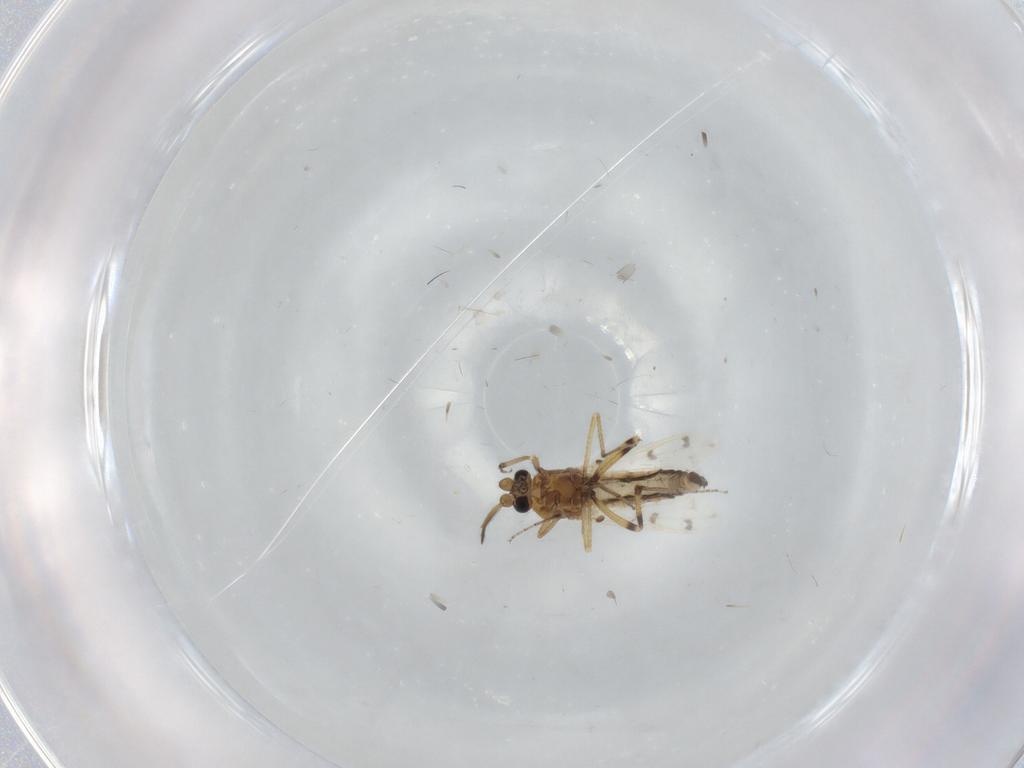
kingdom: Animalia
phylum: Arthropoda
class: Insecta
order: Diptera
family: Ceratopogonidae
